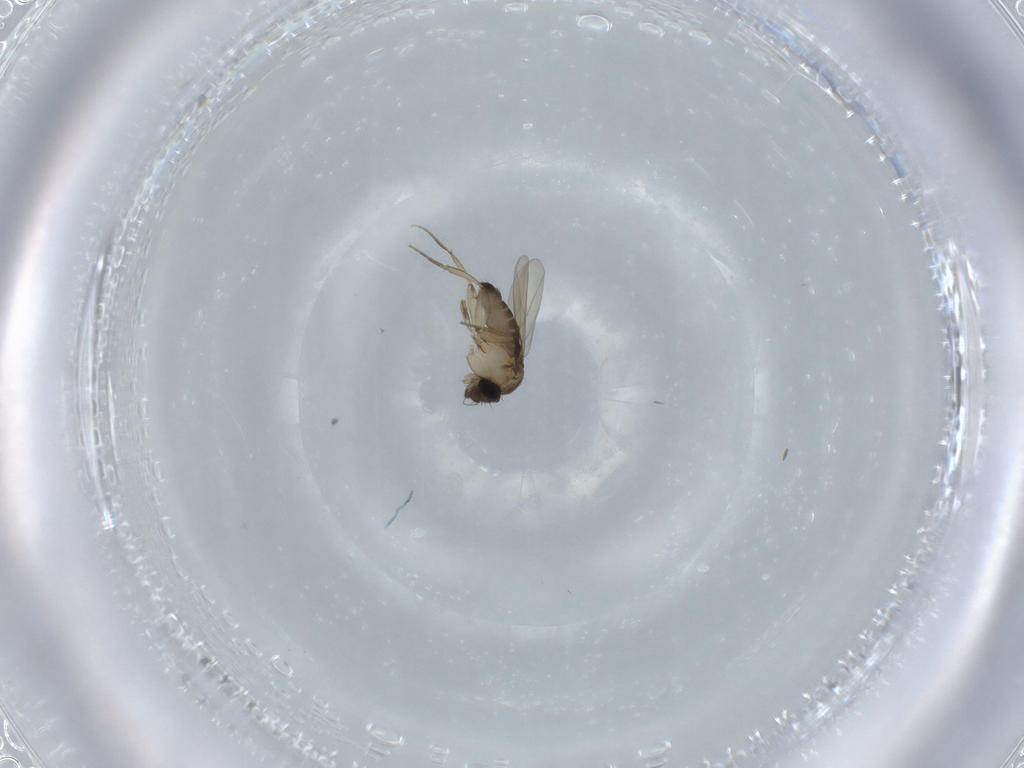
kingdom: Animalia
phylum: Arthropoda
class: Insecta
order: Diptera
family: Phoridae
